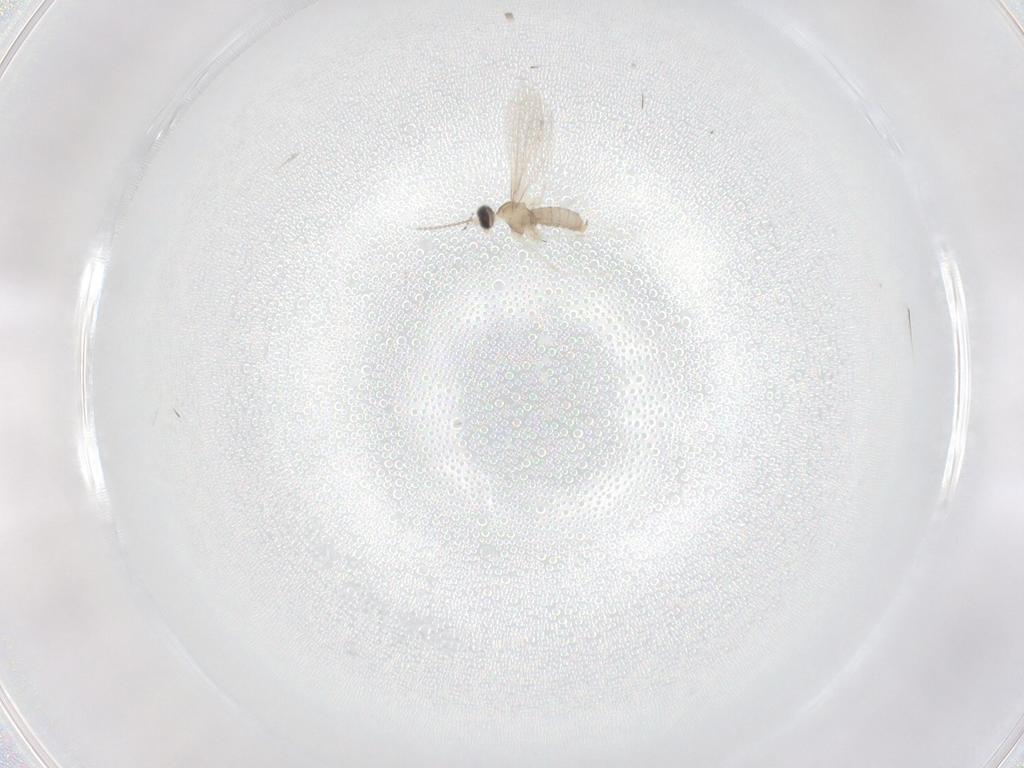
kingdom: Animalia
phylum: Arthropoda
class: Insecta
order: Diptera
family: Cecidomyiidae
